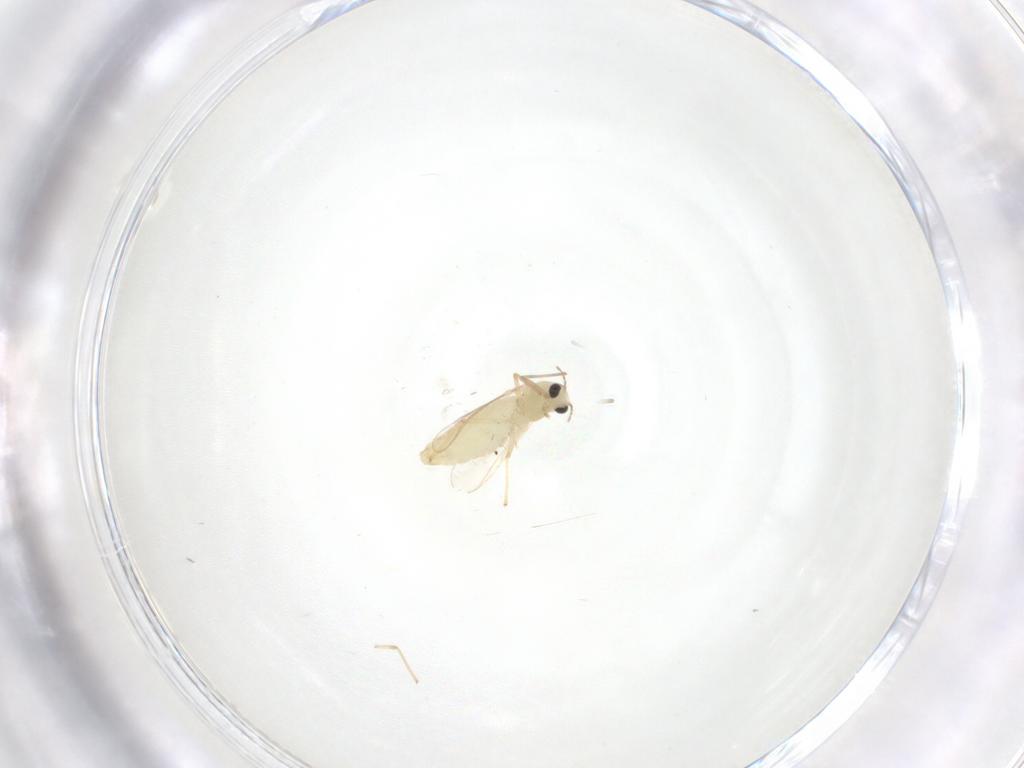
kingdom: Animalia
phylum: Arthropoda
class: Insecta
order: Diptera
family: Chironomidae
